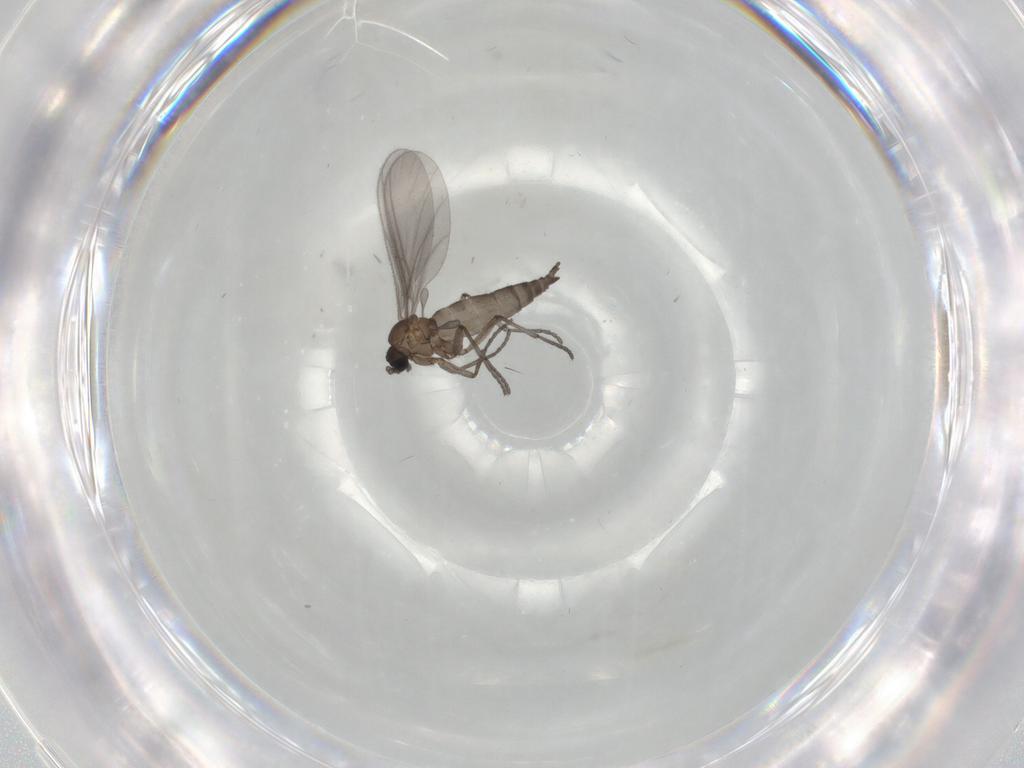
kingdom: Animalia
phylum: Arthropoda
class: Insecta
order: Diptera
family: Sciaridae
